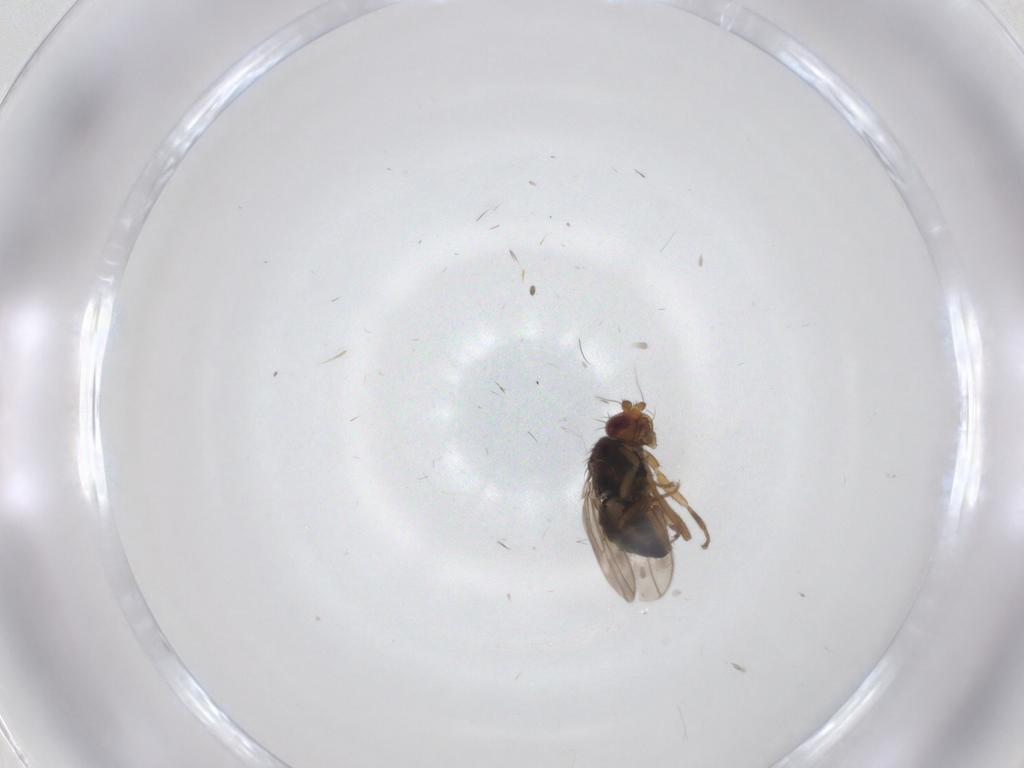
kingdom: Animalia
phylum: Arthropoda
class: Insecta
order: Diptera
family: Sphaeroceridae
